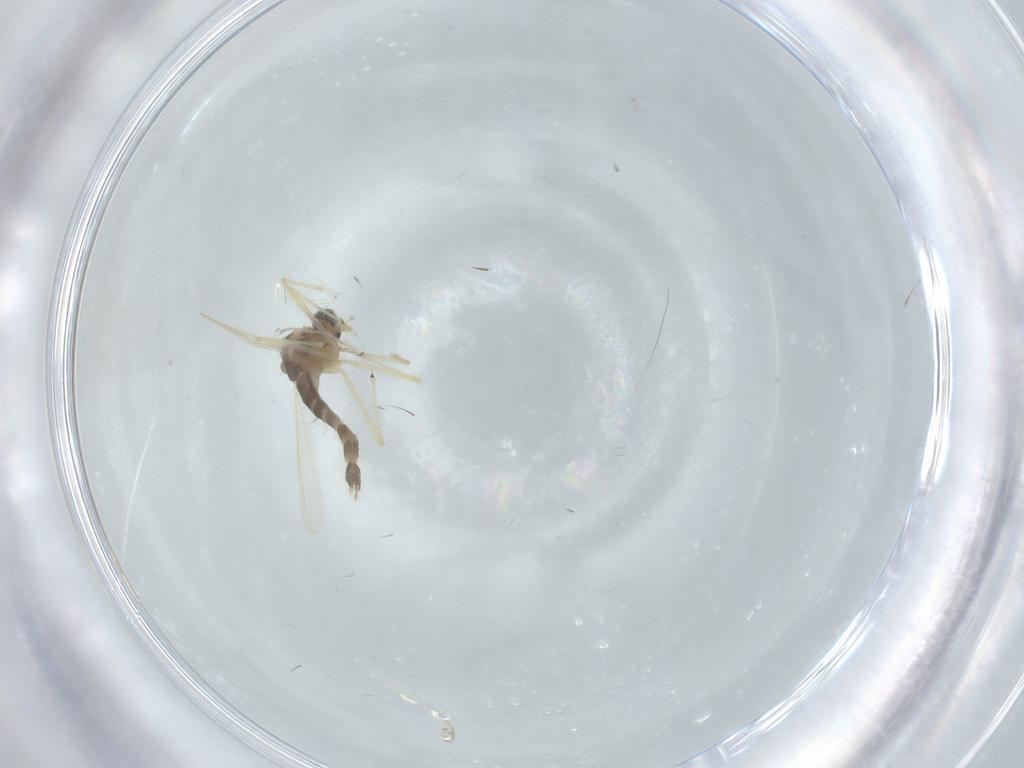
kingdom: Animalia
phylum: Arthropoda
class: Insecta
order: Diptera
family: Chironomidae
